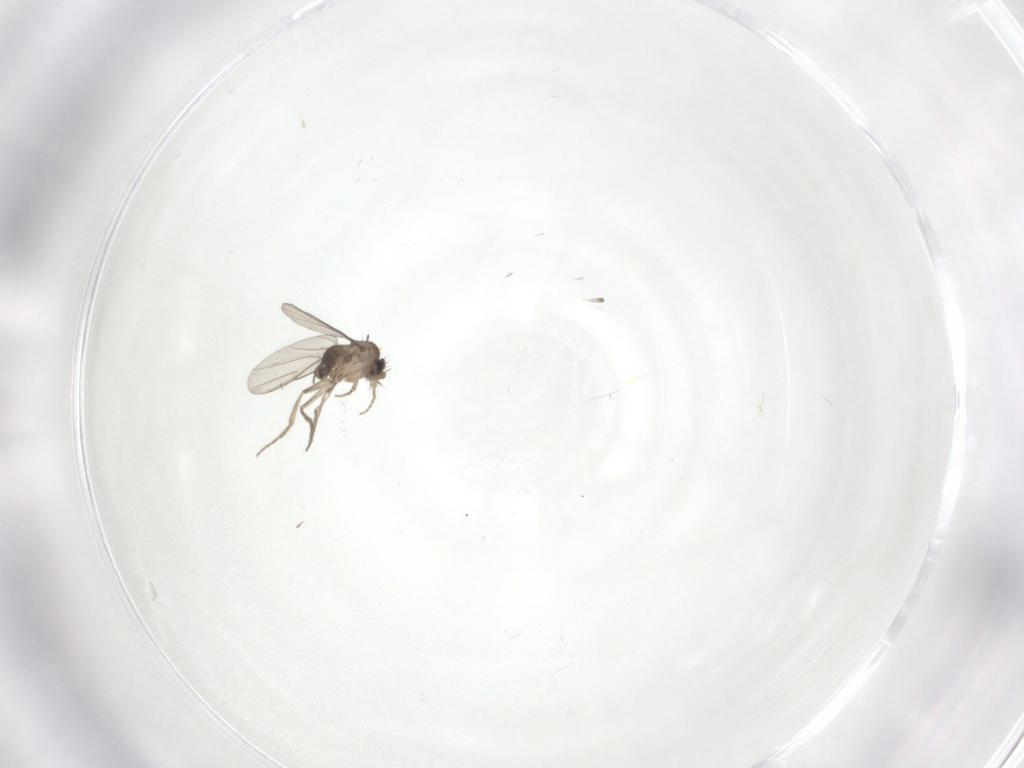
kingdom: Animalia
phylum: Arthropoda
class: Insecta
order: Diptera
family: Phoridae
